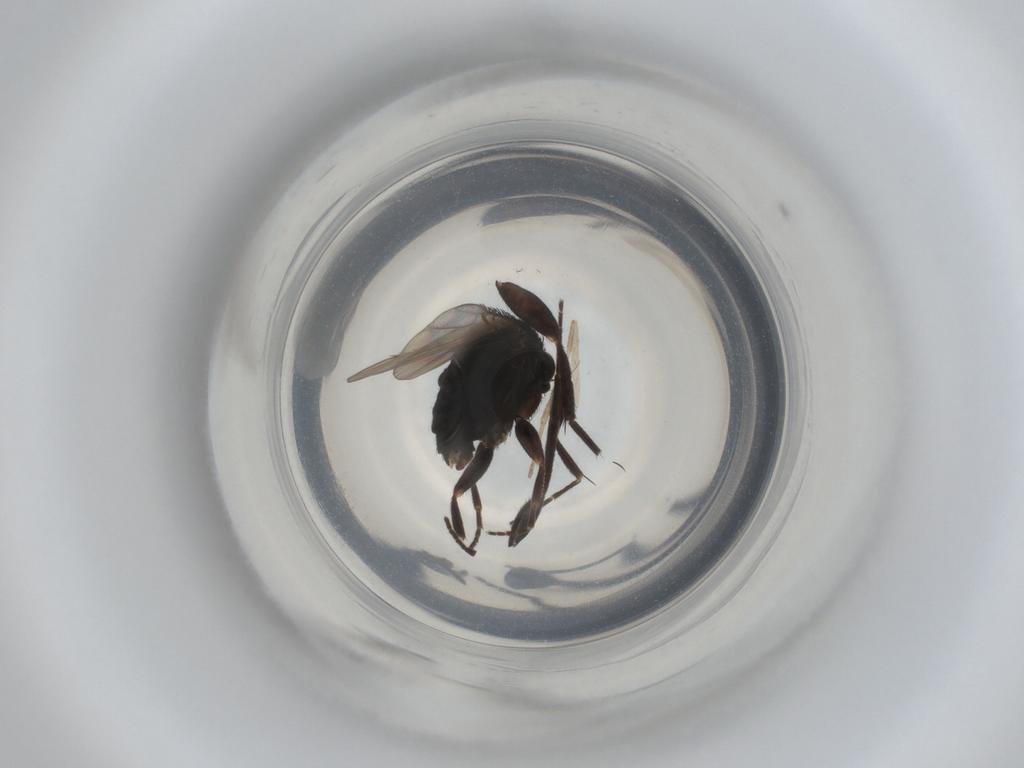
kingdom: Animalia
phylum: Arthropoda
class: Insecta
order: Diptera
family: Phoridae
